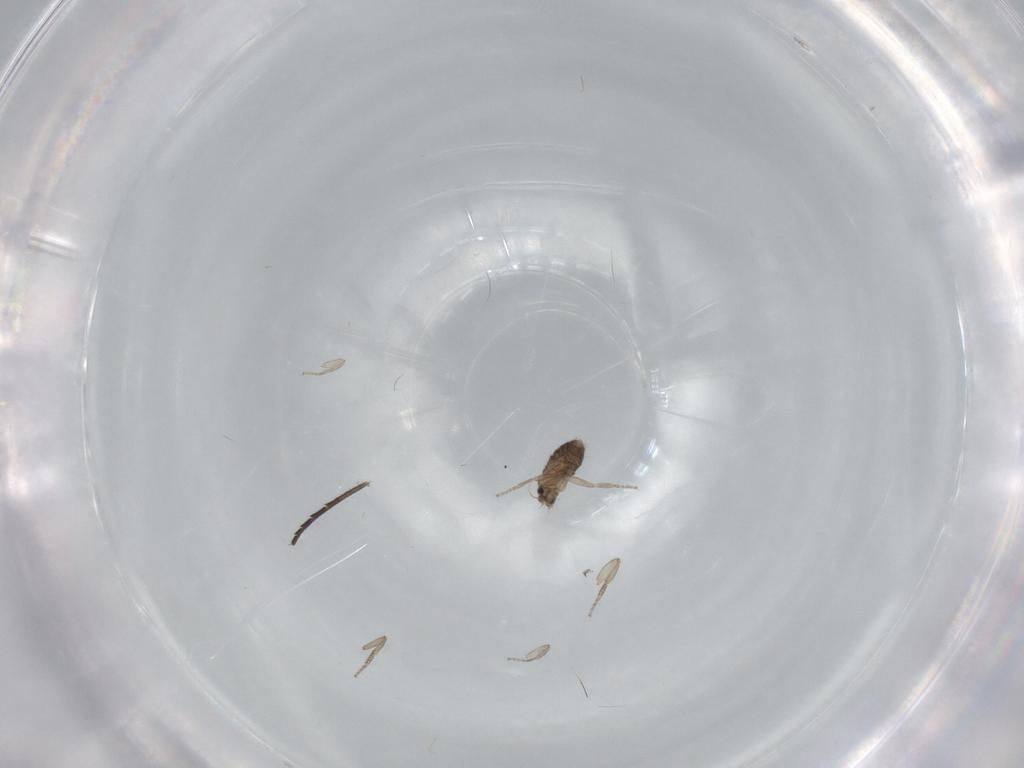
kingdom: Animalia
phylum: Arthropoda
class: Insecta
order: Diptera
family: Phoridae
